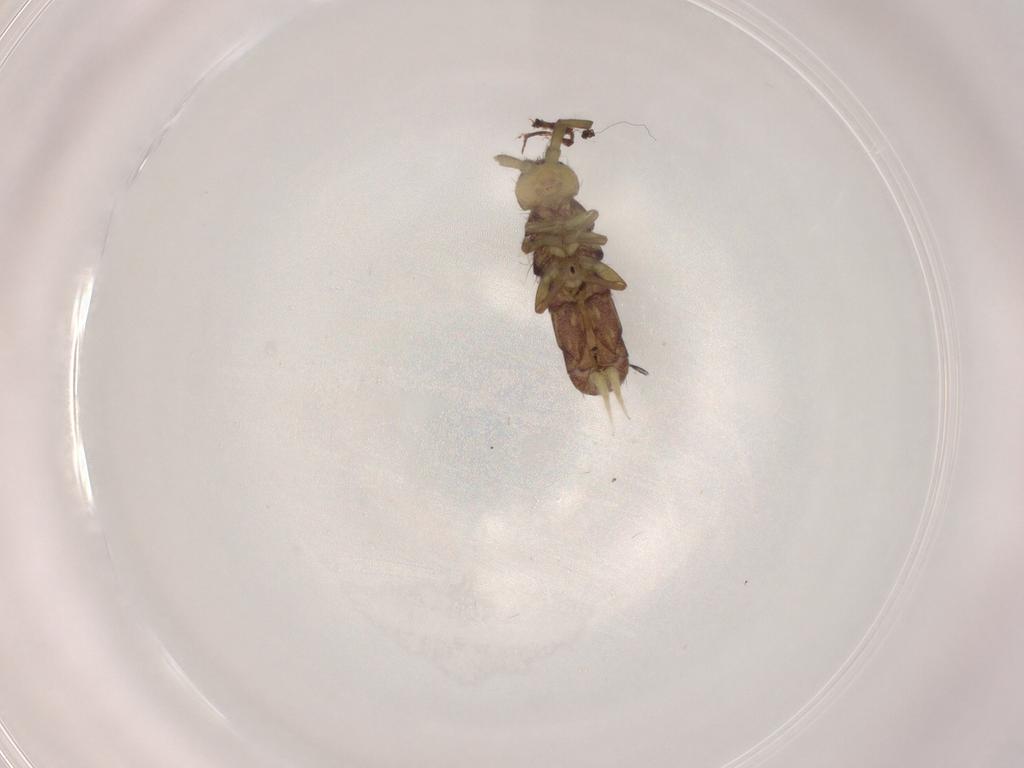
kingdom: Animalia
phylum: Arthropoda
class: Collembola
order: Entomobryomorpha
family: Isotomidae
